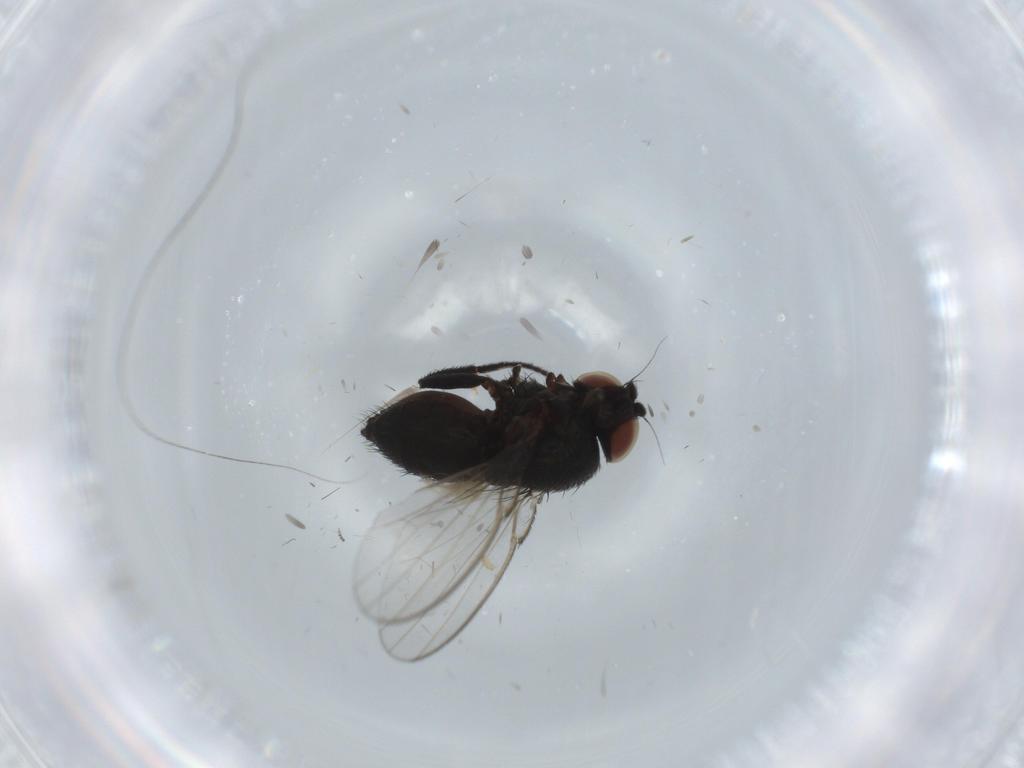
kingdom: Animalia
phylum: Arthropoda
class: Insecta
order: Diptera
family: Milichiidae
